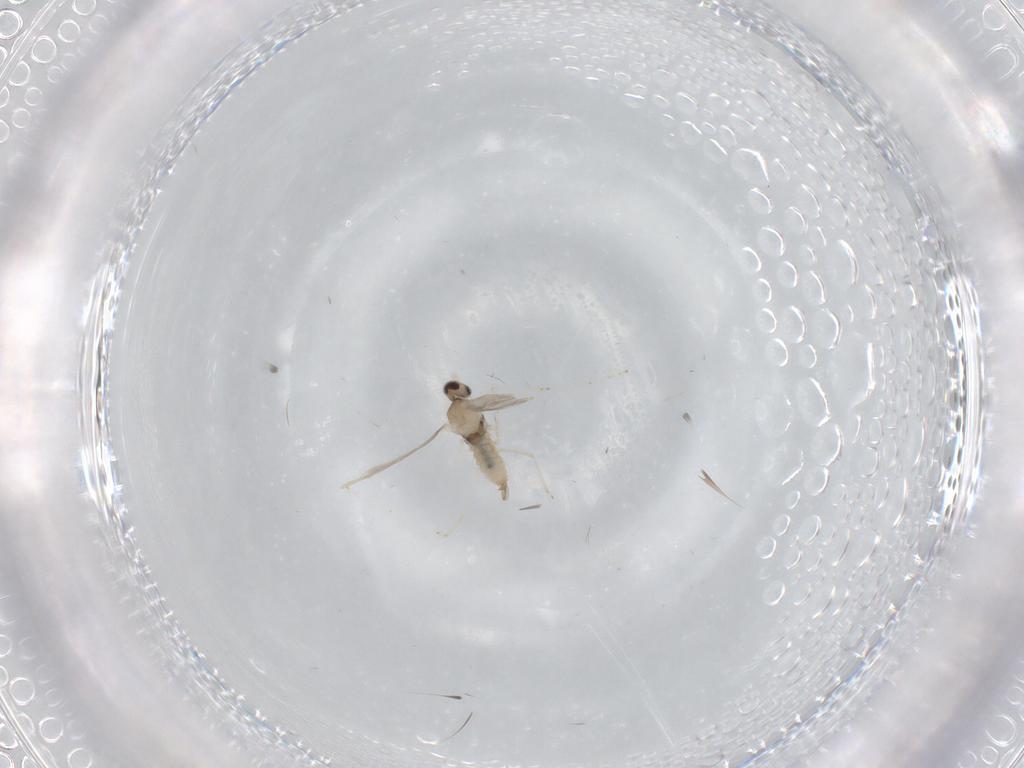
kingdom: Animalia
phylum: Arthropoda
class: Insecta
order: Diptera
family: Cecidomyiidae
